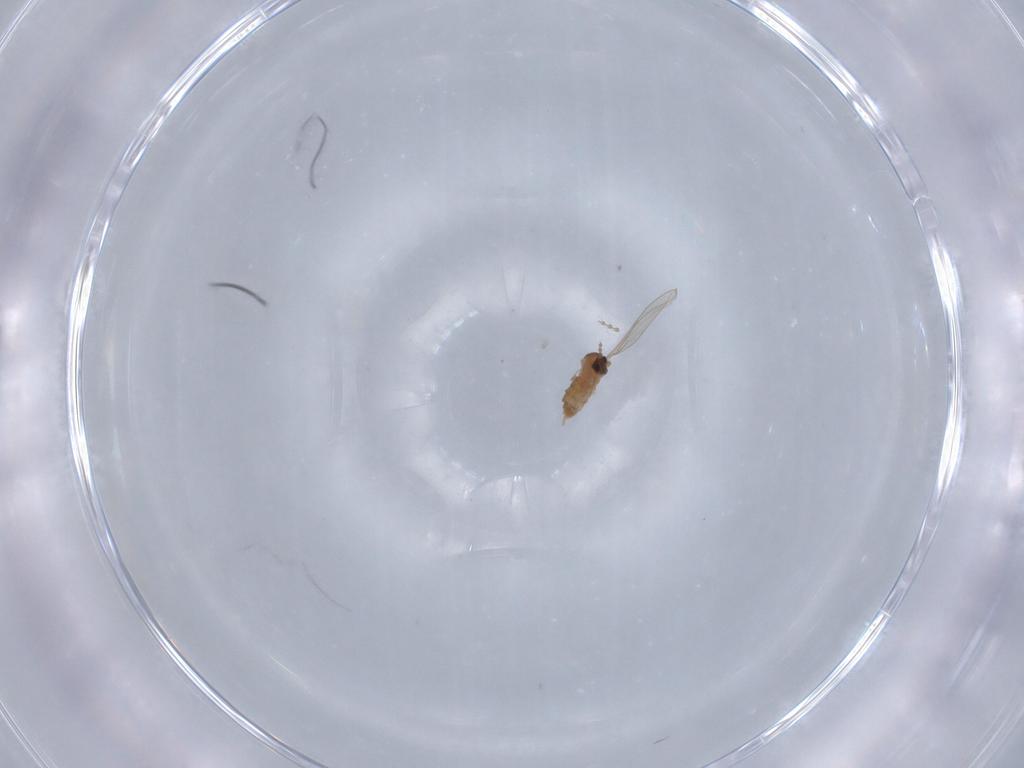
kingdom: Animalia
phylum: Arthropoda
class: Insecta
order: Diptera
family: Cecidomyiidae
